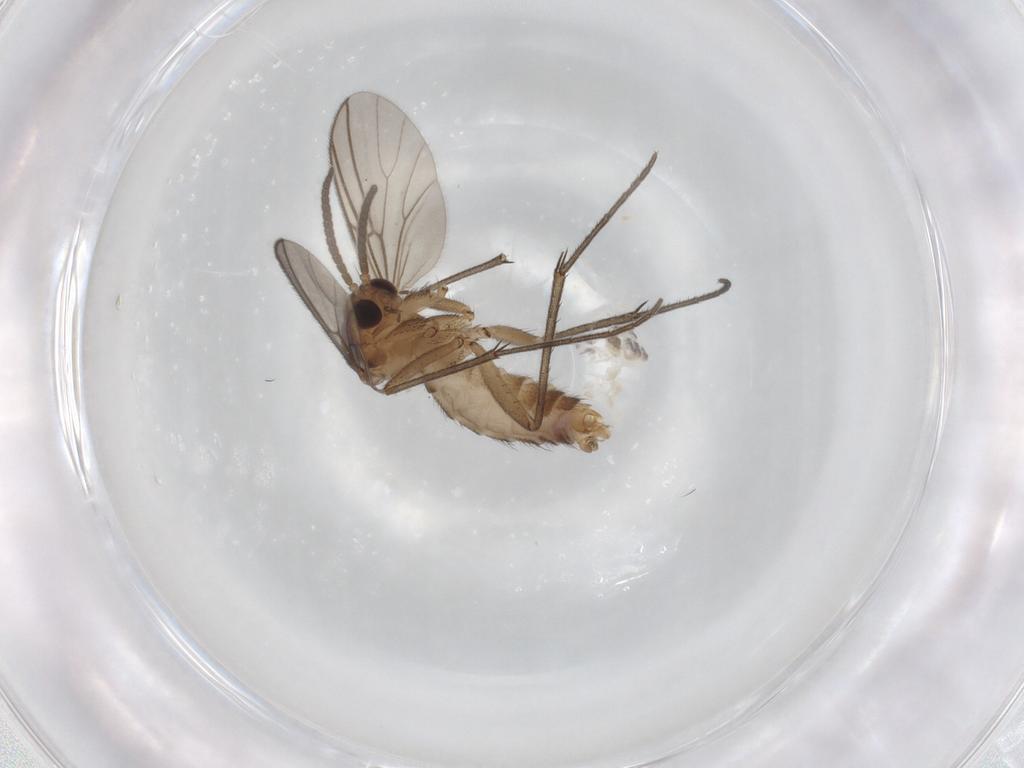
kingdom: Animalia
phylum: Arthropoda
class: Insecta
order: Diptera
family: Mycetophilidae
